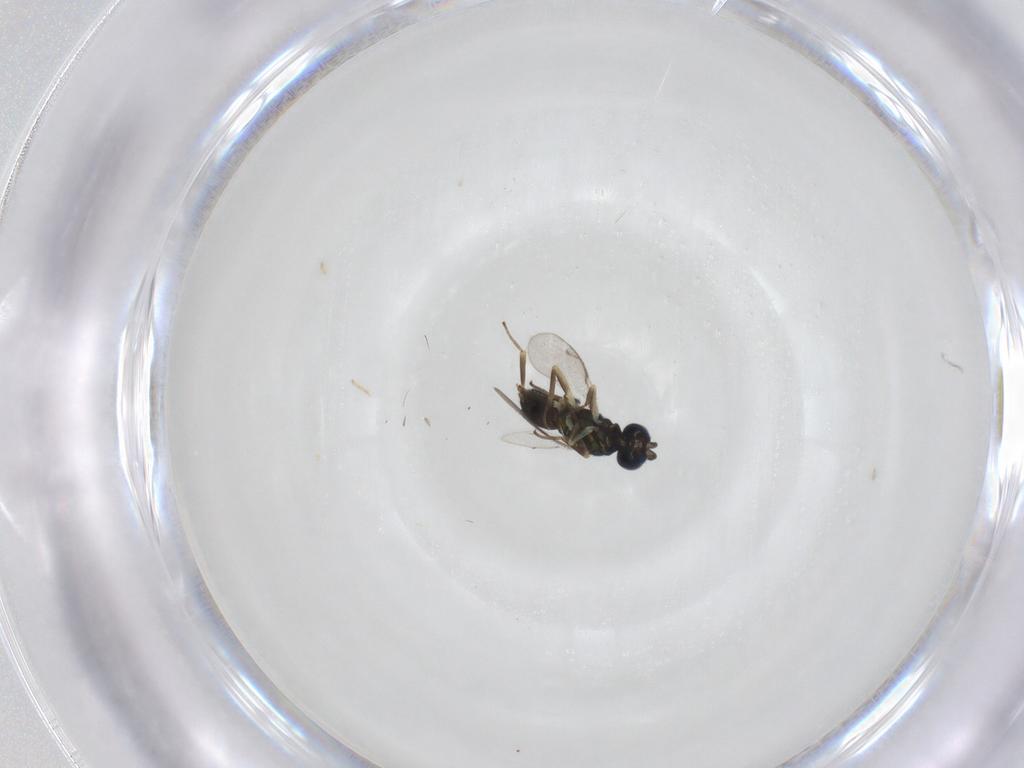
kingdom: Animalia
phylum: Arthropoda
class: Insecta
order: Hymenoptera
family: Eupelmidae
